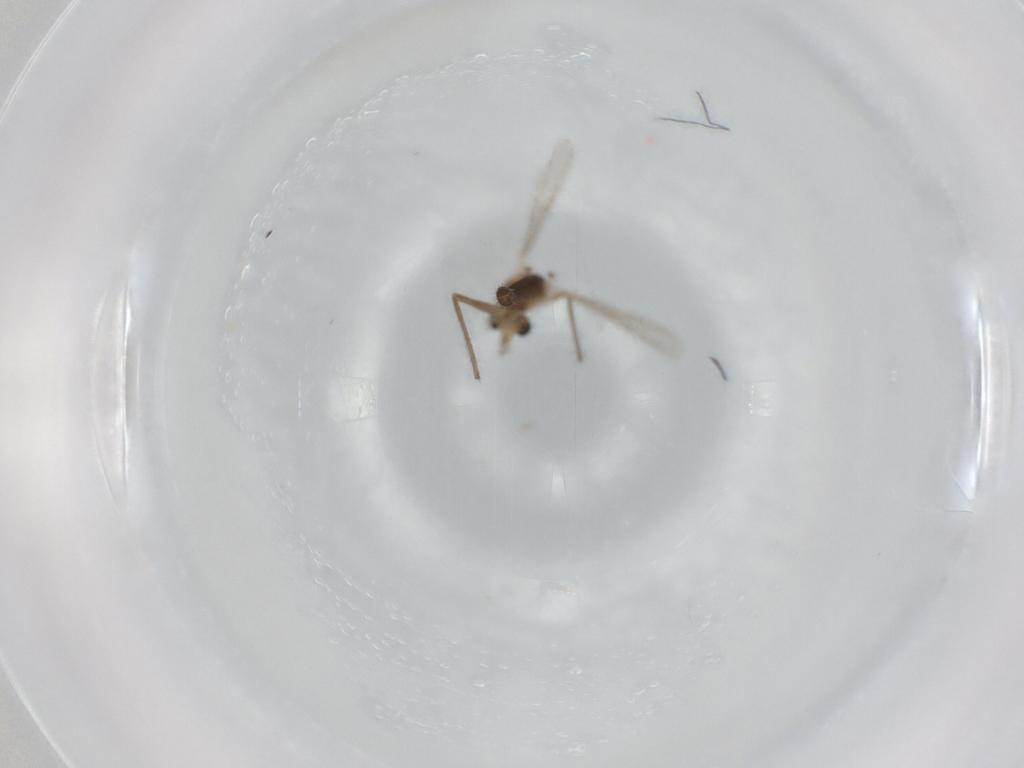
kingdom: Animalia
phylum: Arthropoda
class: Insecta
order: Diptera
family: Chironomidae
